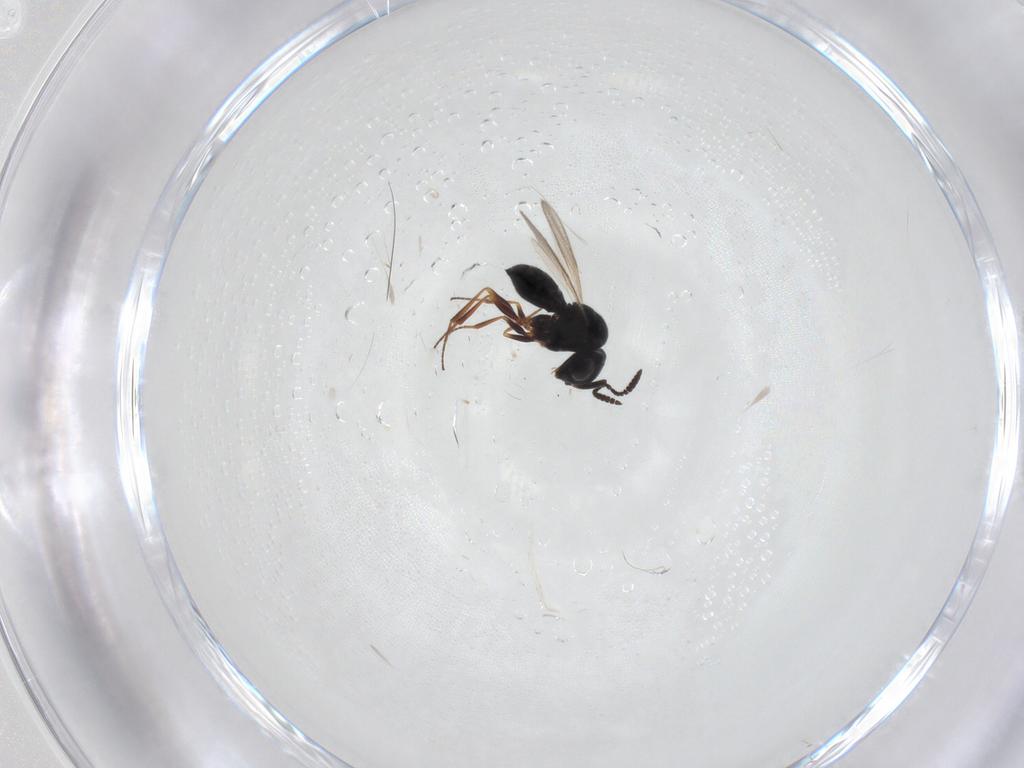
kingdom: Animalia
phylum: Arthropoda
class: Insecta
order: Hymenoptera
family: Scelionidae
